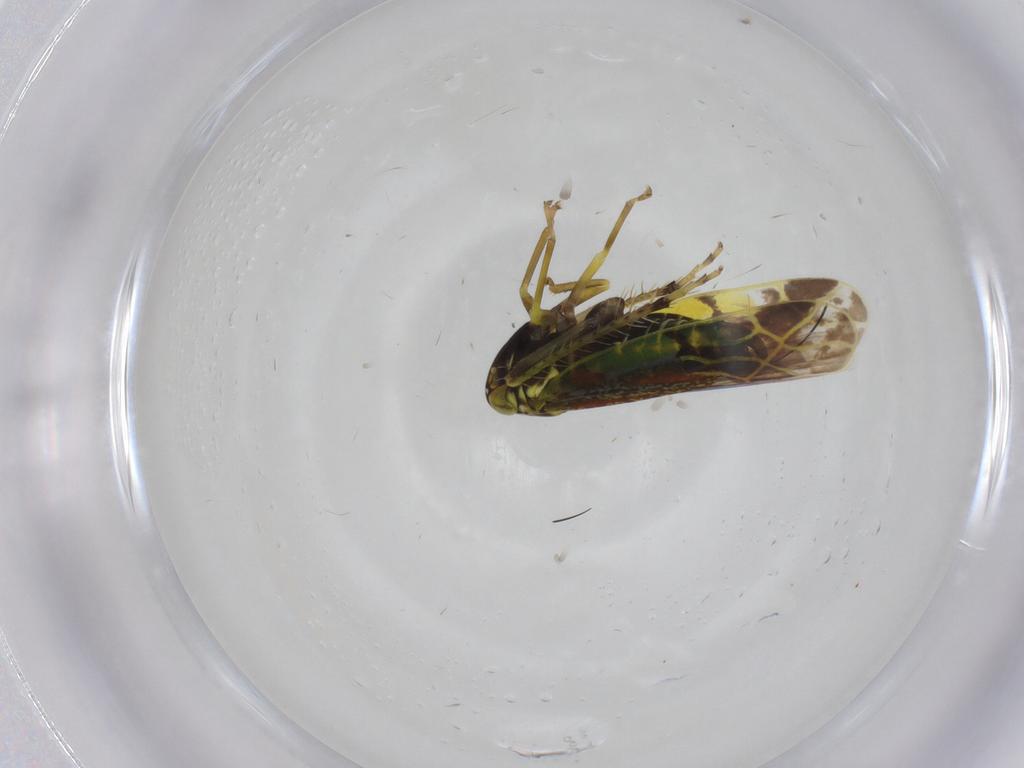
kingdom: Animalia
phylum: Arthropoda
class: Insecta
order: Hemiptera
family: Cicadellidae
